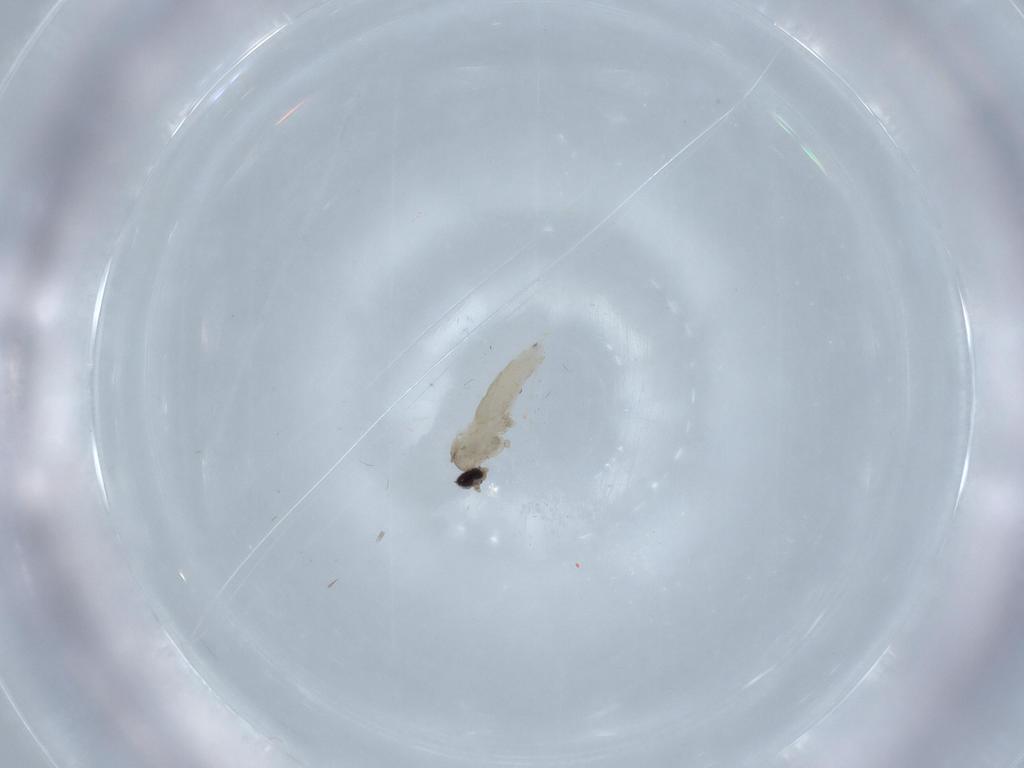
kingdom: Animalia
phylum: Arthropoda
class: Insecta
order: Diptera
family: Cecidomyiidae
